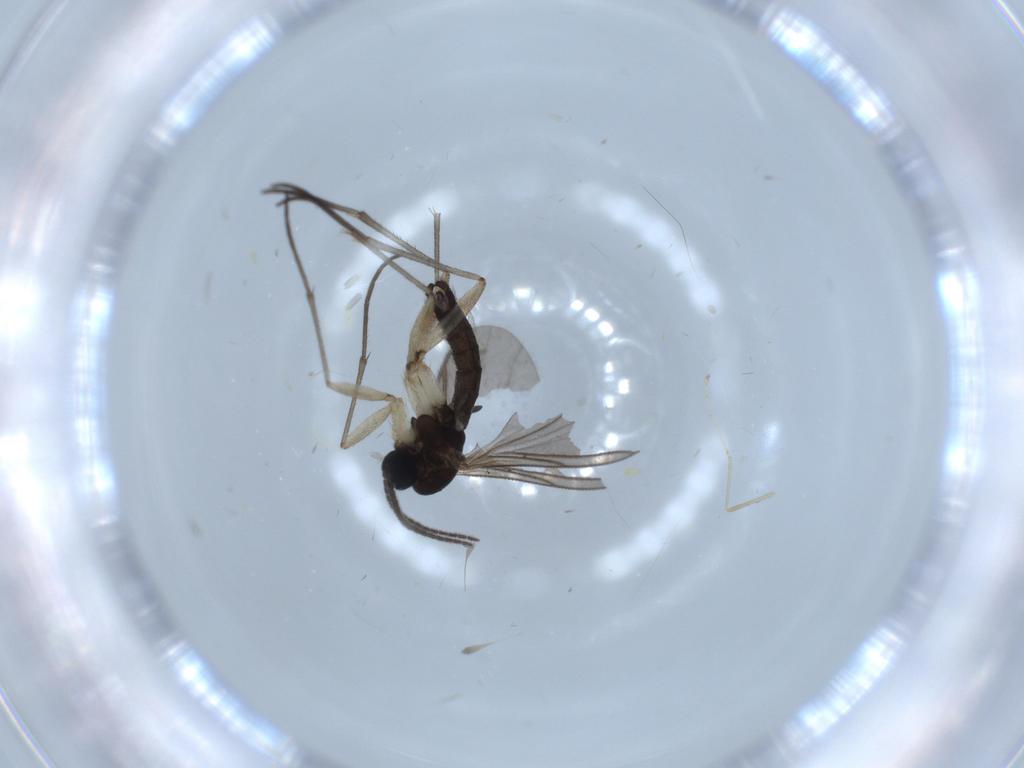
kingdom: Animalia
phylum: Arthropoda
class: Insecta
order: Diptera
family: Sciaridae
